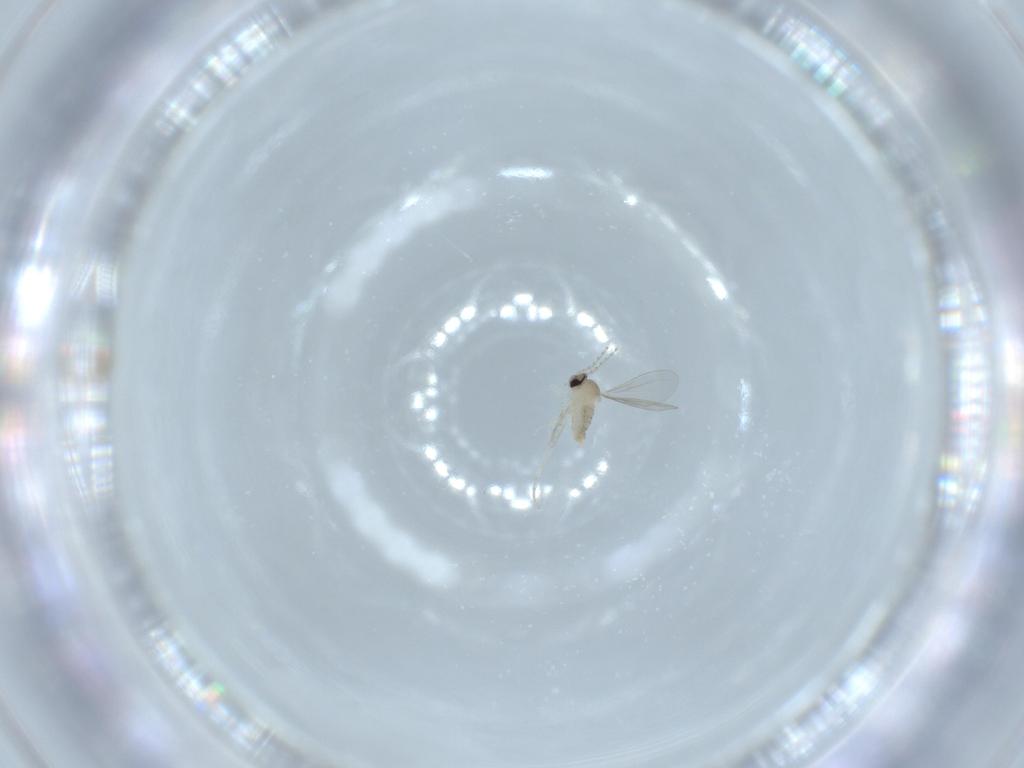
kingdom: Animalia
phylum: Arthropoda
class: Insecta
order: Diptera
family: Cecidomyiidae
